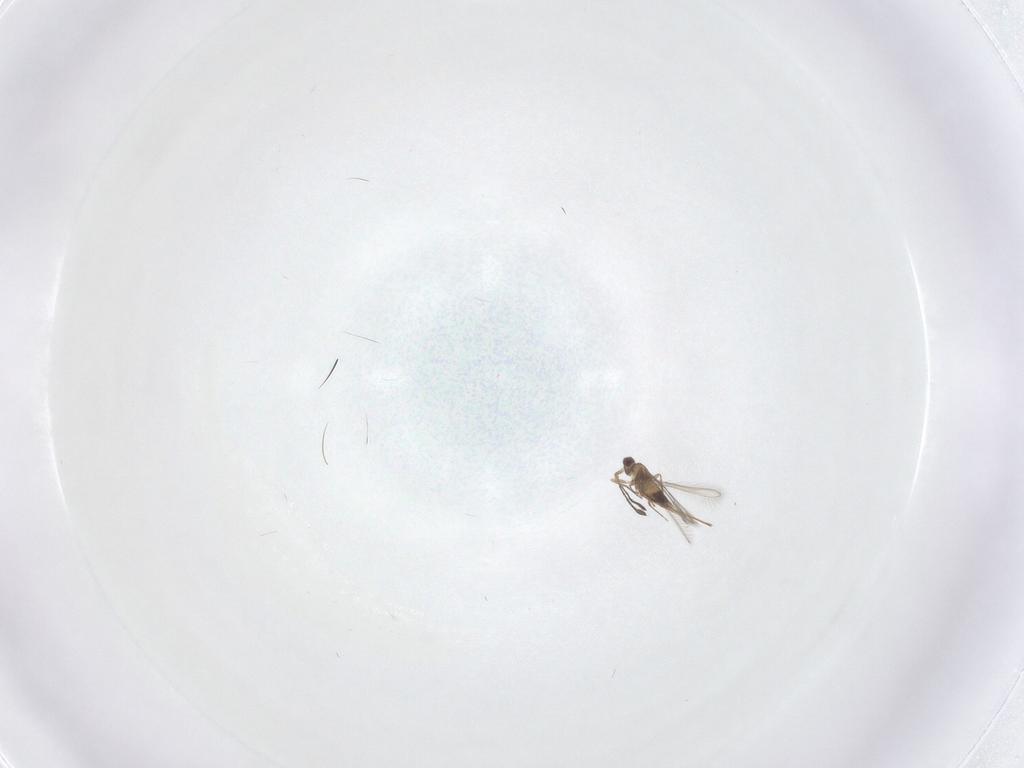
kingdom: Animalia
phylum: Arthropoda
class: Insecta
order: Hymenoptera
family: Mymaridae
